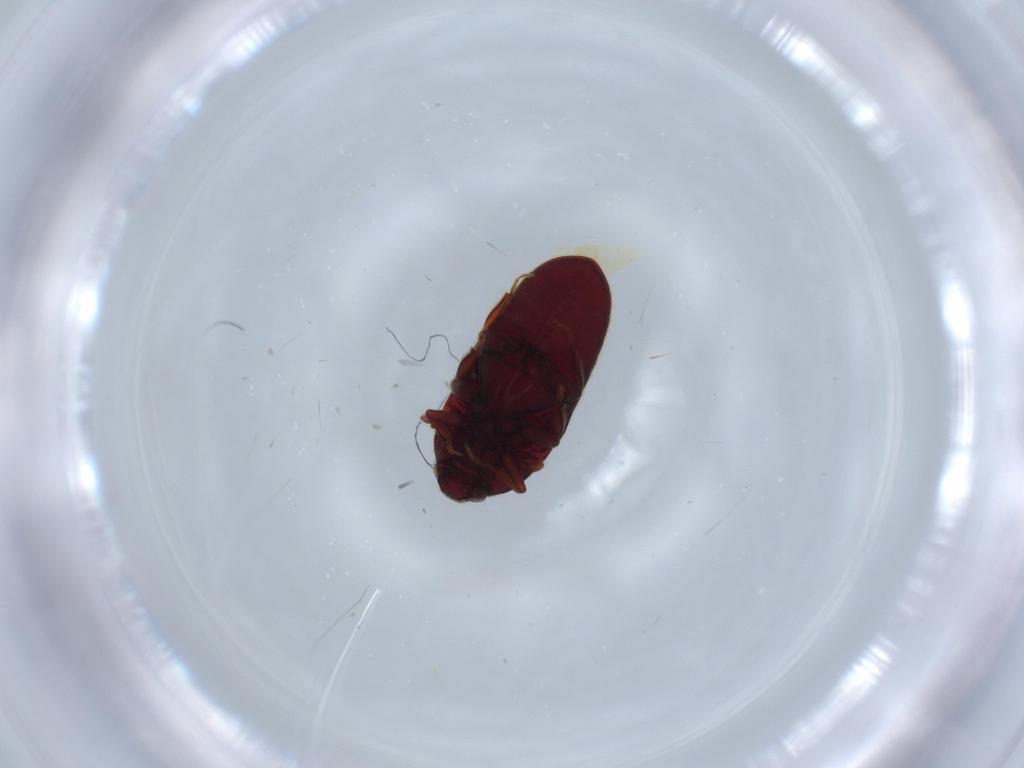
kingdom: Animalia
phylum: Arthropoda
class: Insecta
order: Coleoptera
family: Throscidae
